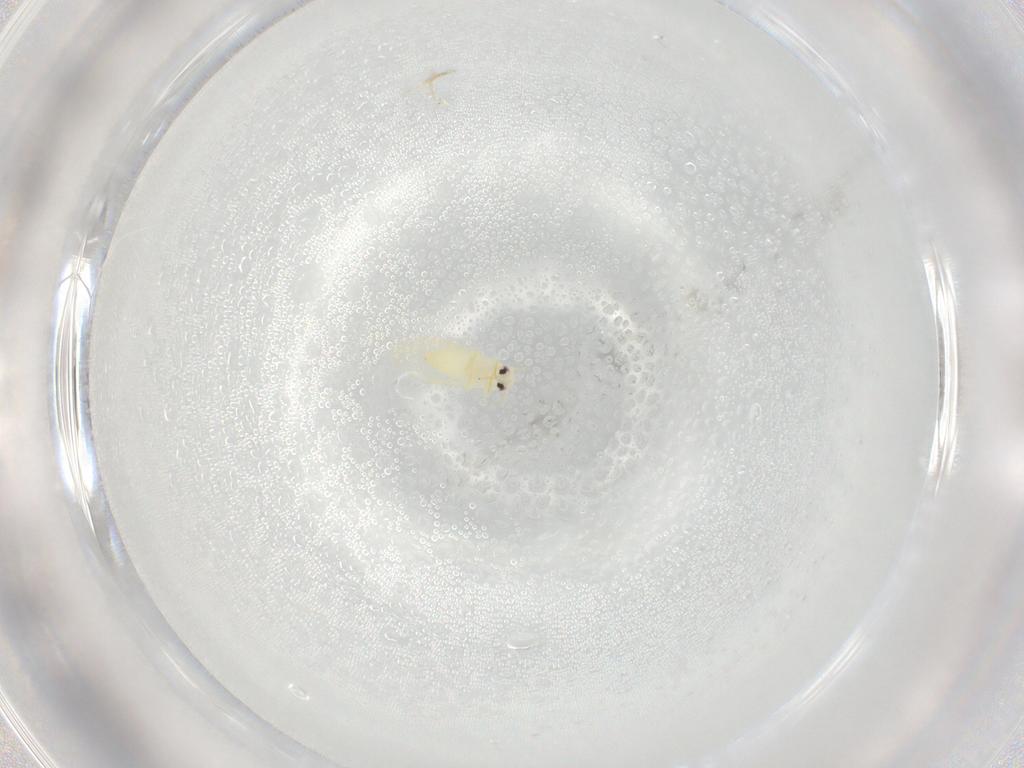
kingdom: Animalia
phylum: Arthropoda
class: Insecta
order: Hemiptera
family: Aleyrodidae
